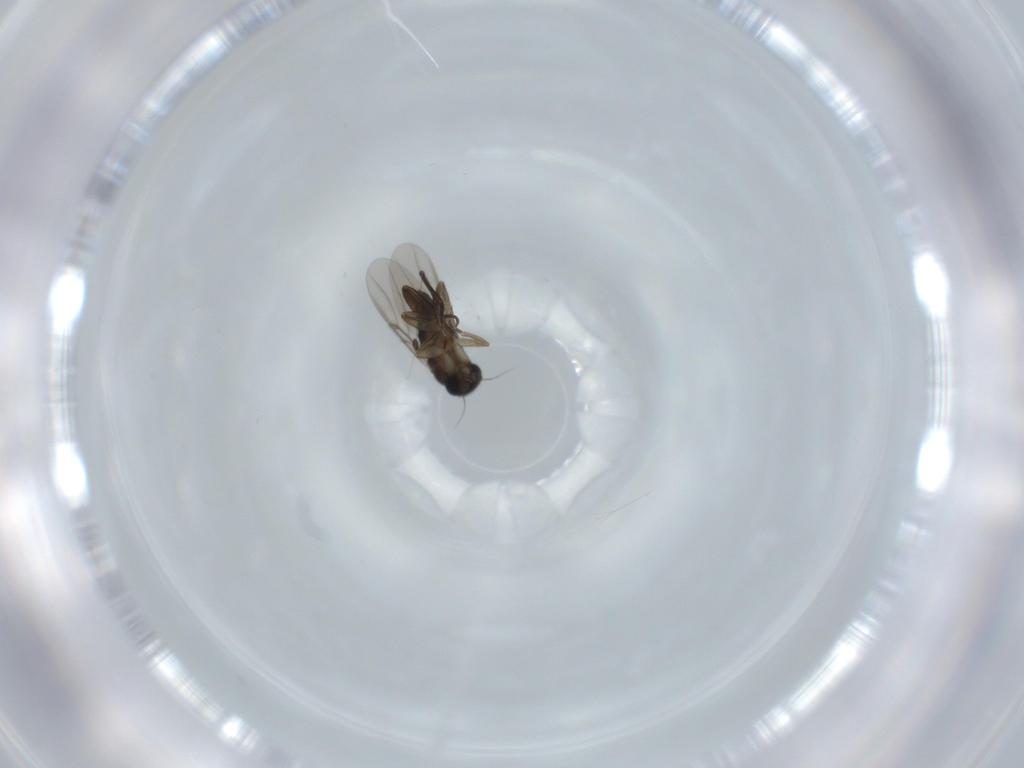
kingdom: Animalia
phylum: Arthropoda
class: Insecta
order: Diptera
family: Phoridae
